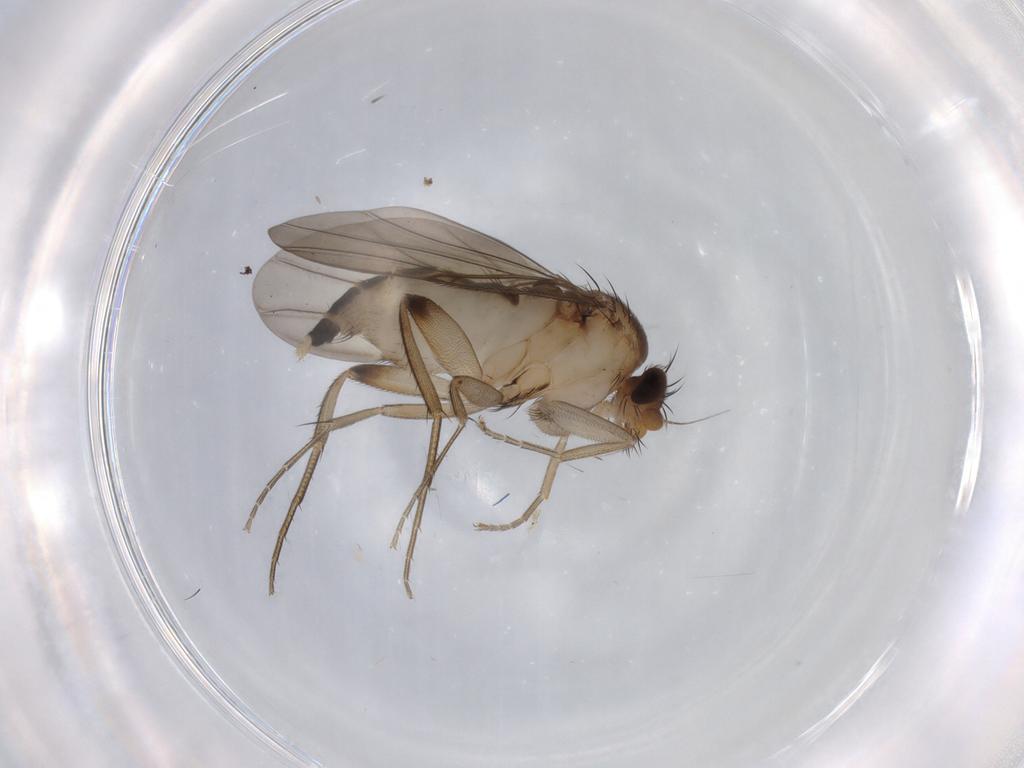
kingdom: Animalia
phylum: Arthropoda
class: Insecta
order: Diptera
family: Phoridae
